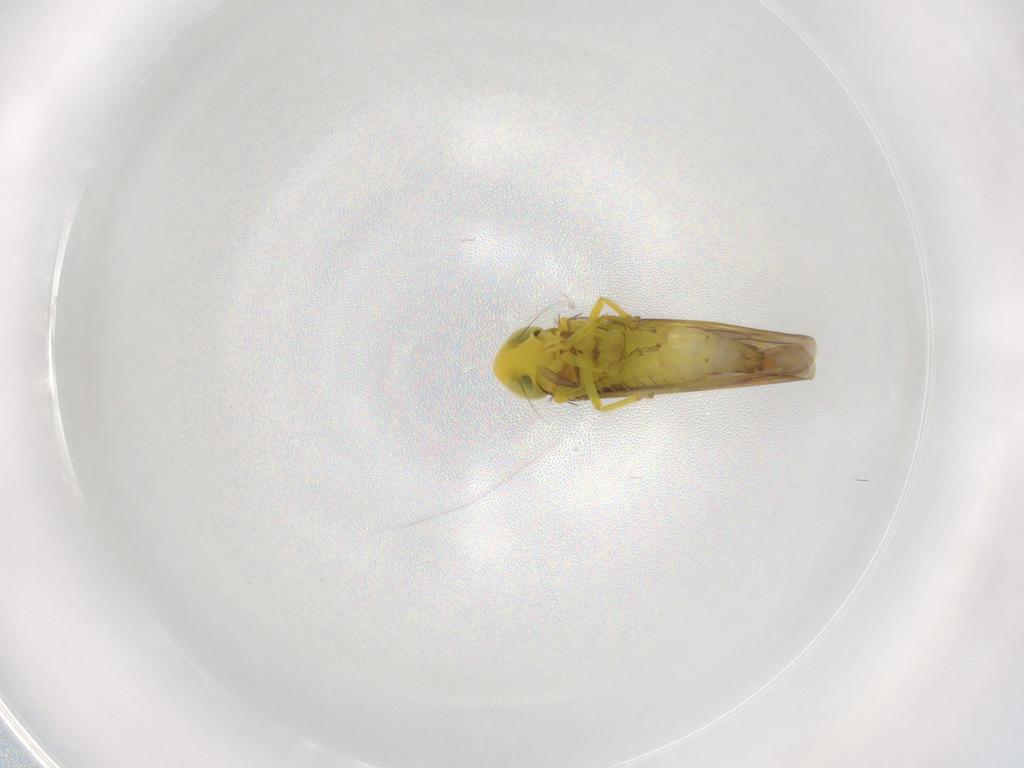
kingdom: Animalia
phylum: Arthropoda
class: Insecta
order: Hemiptera
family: Cicadellidae
